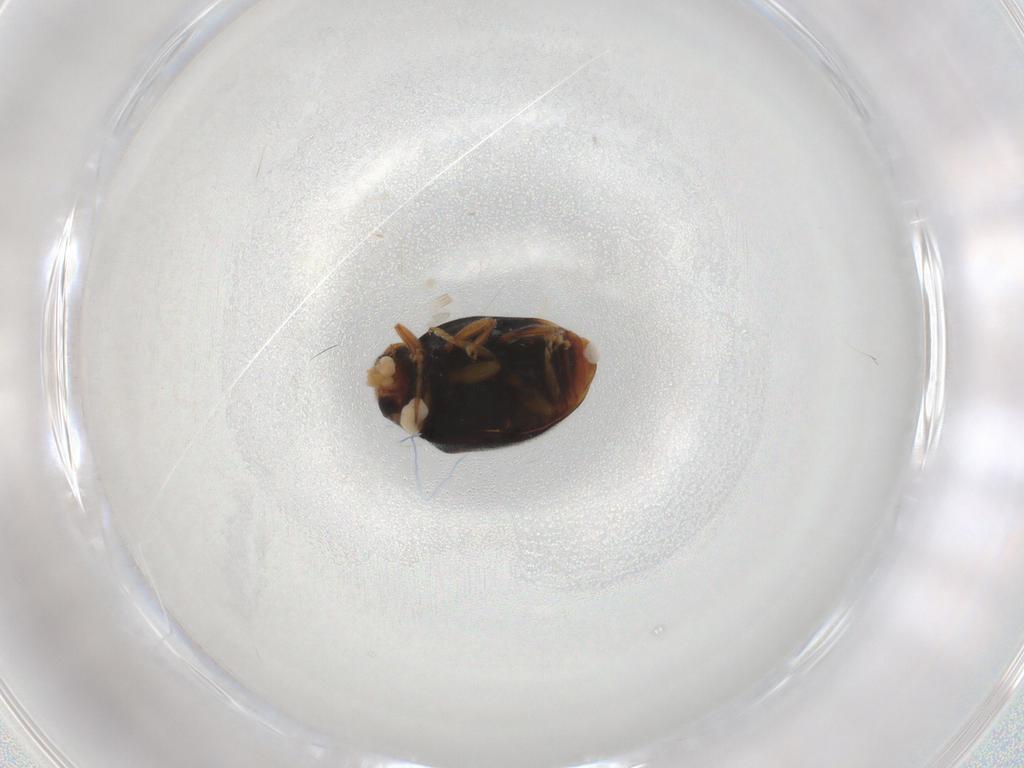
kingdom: Animalia
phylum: Arthropoda
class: Insecta
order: Coleoptera
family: Coccinellidae
